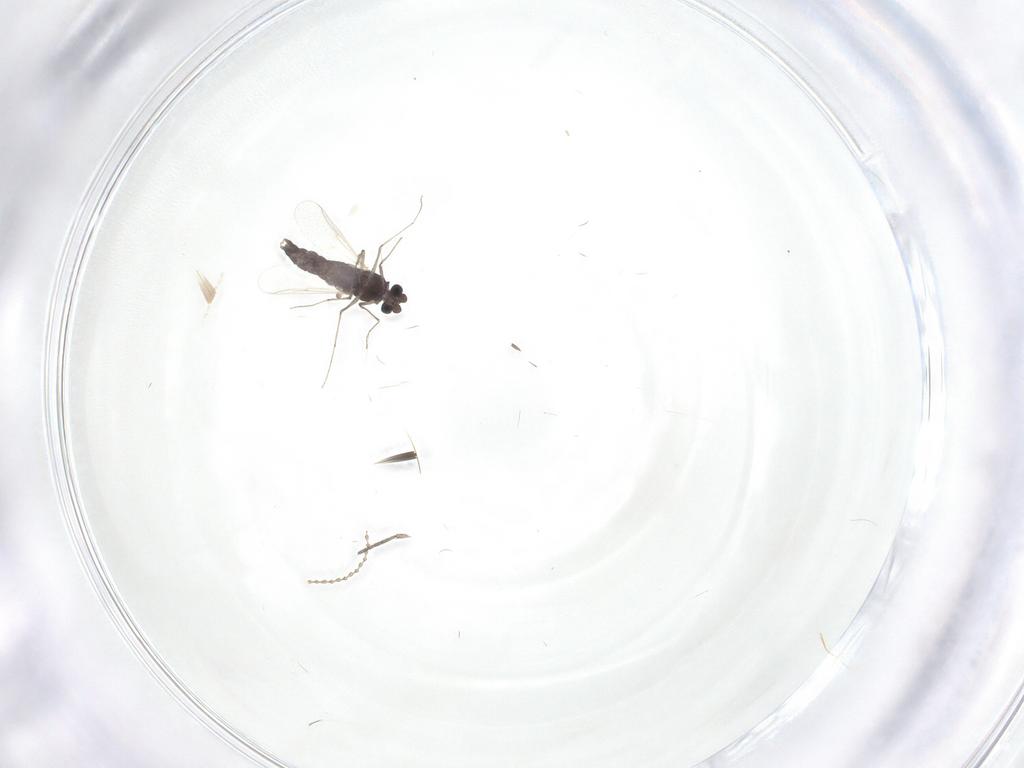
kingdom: Animalia
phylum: Arthropoda
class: Insecta
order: Diptera
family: Chironomidae
